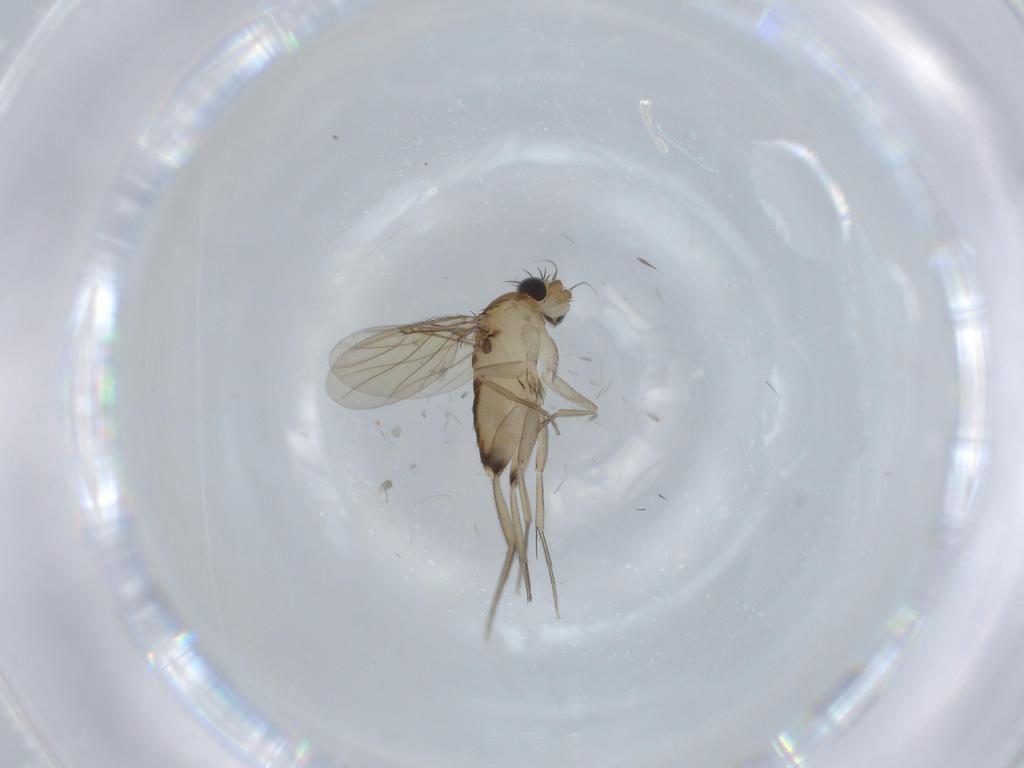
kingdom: Animalia
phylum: Arthropoda
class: Insecta
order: Diptera
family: Phoridae
